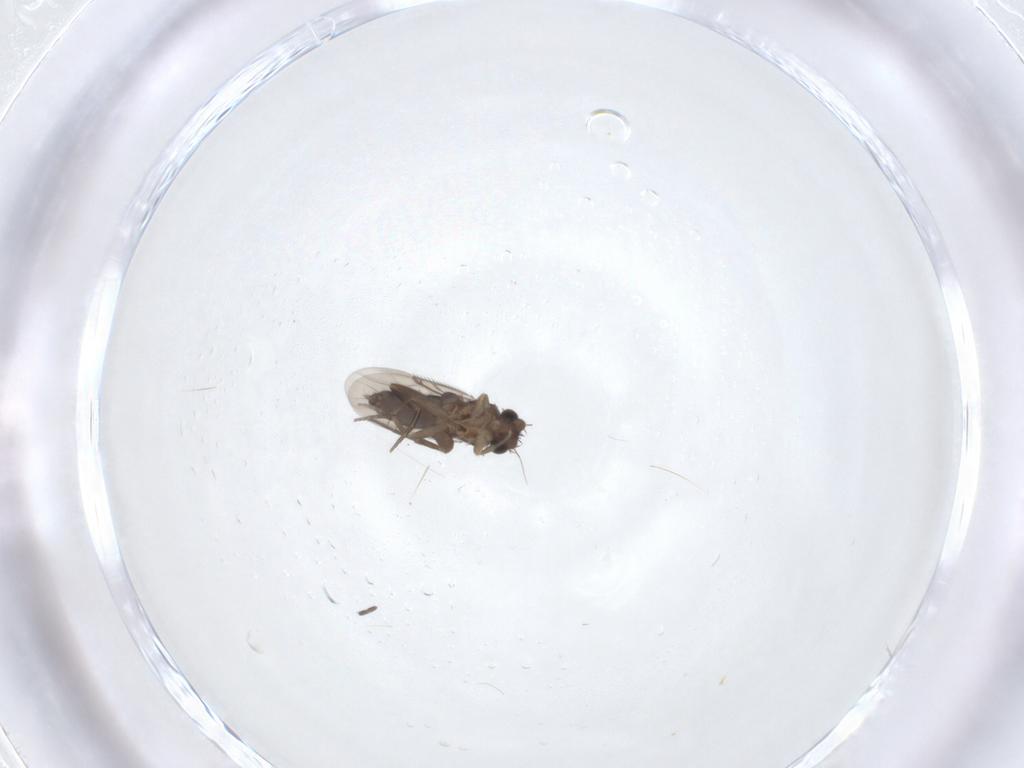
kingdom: Animalia
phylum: Arthropoda
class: Insecta
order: Diptera
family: Phoridae
